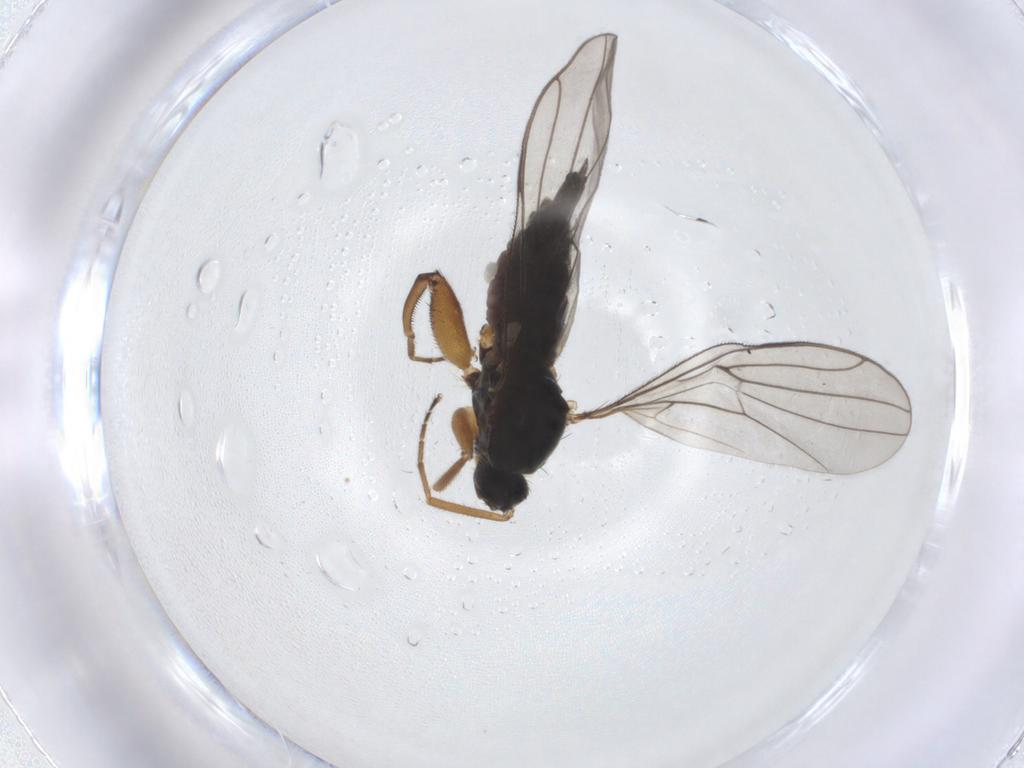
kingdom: Animalia
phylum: Arthropoda
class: Insecta
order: Diptera
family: Hybotidae
